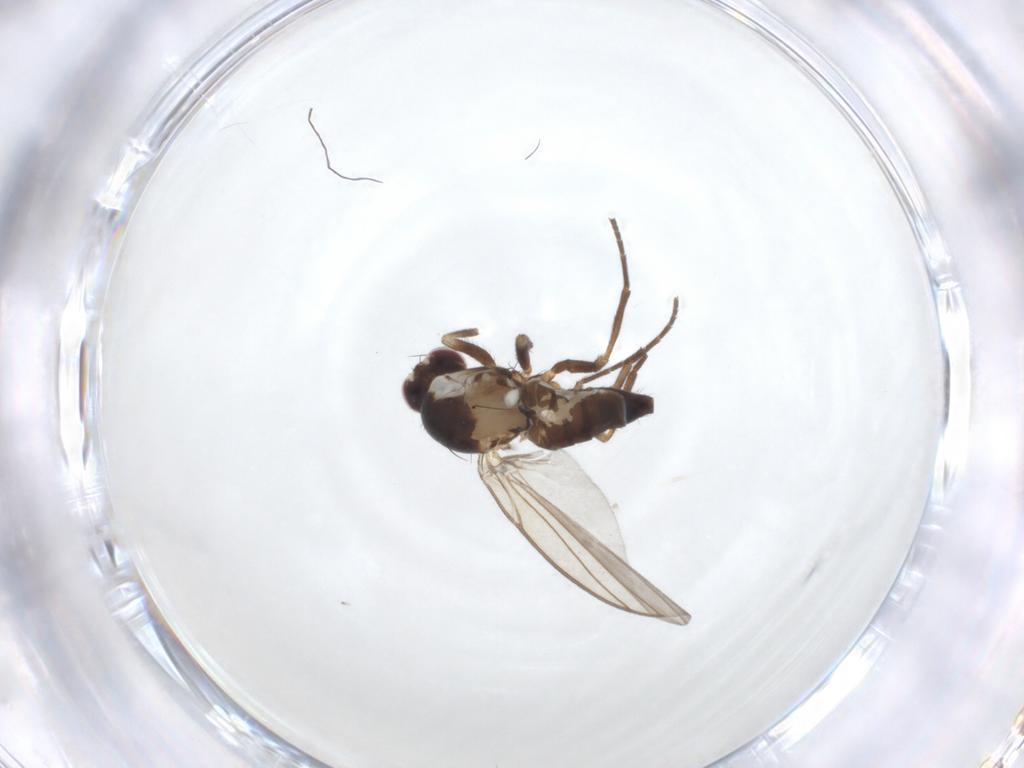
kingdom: Animalia
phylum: Arthropoda
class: Insecta
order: Diptera
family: Agromyzidae
